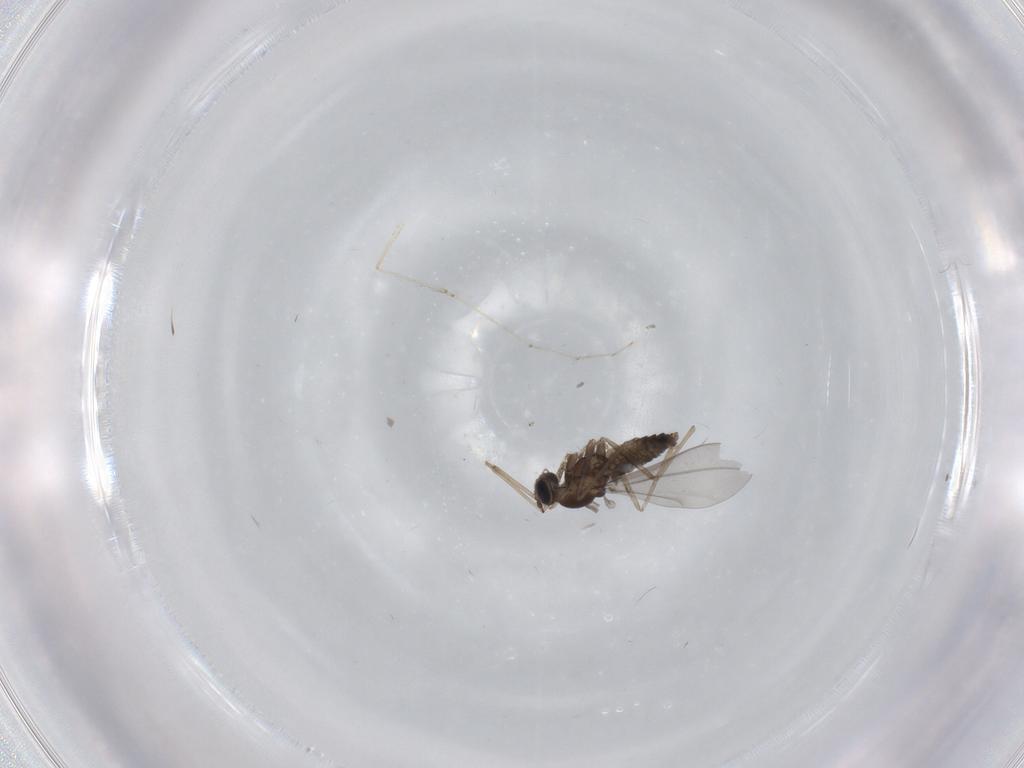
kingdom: Animalia
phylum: Arthropoda
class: Insecta
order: Diptera
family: Cecidomyiidae
